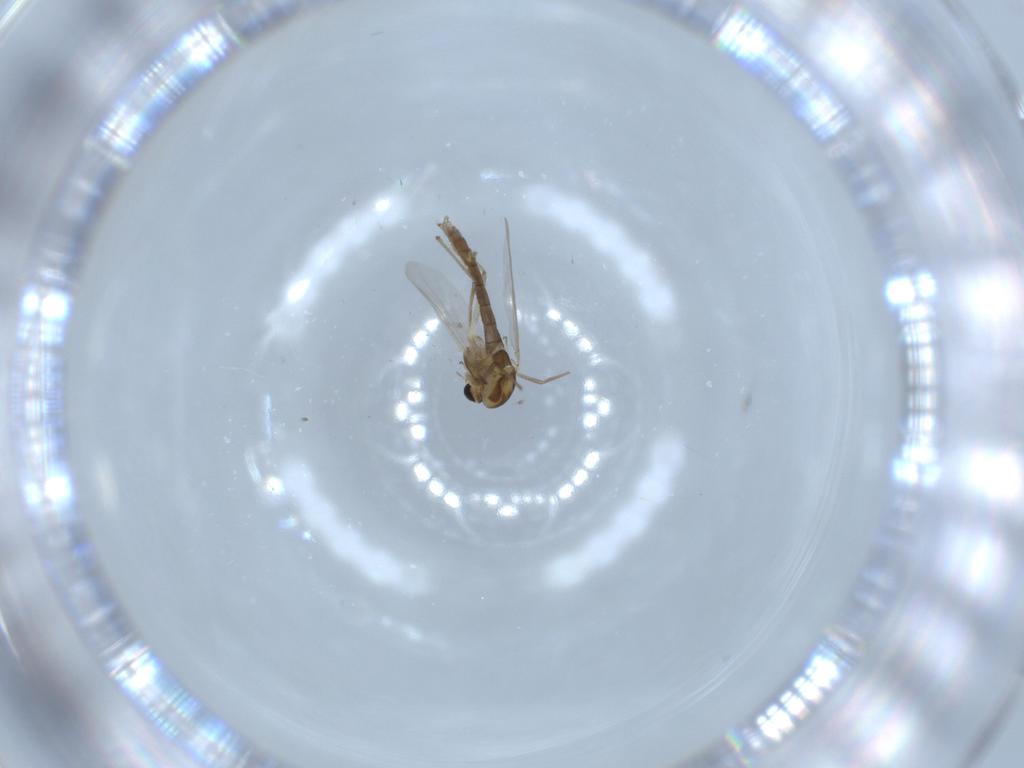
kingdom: Animalia
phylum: Arthropoda
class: Insecta
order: Diptera
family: Chironomidae
